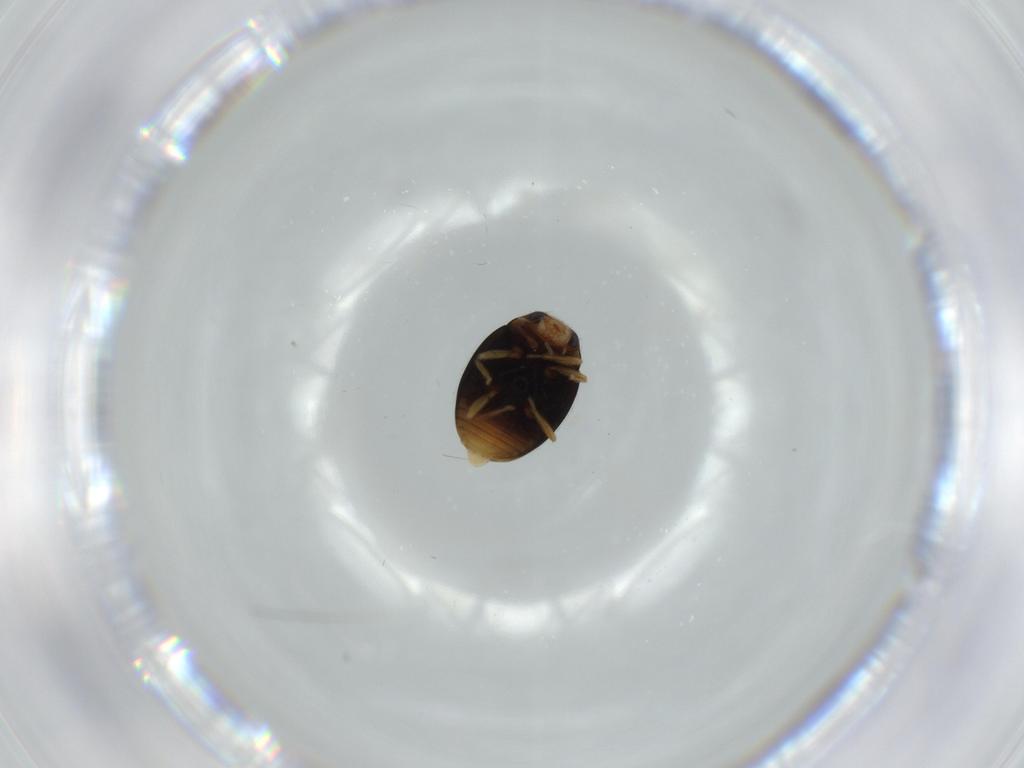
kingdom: Animalia
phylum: Arthropoda
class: Insecta
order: Coleoptera
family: Coccinellidae
